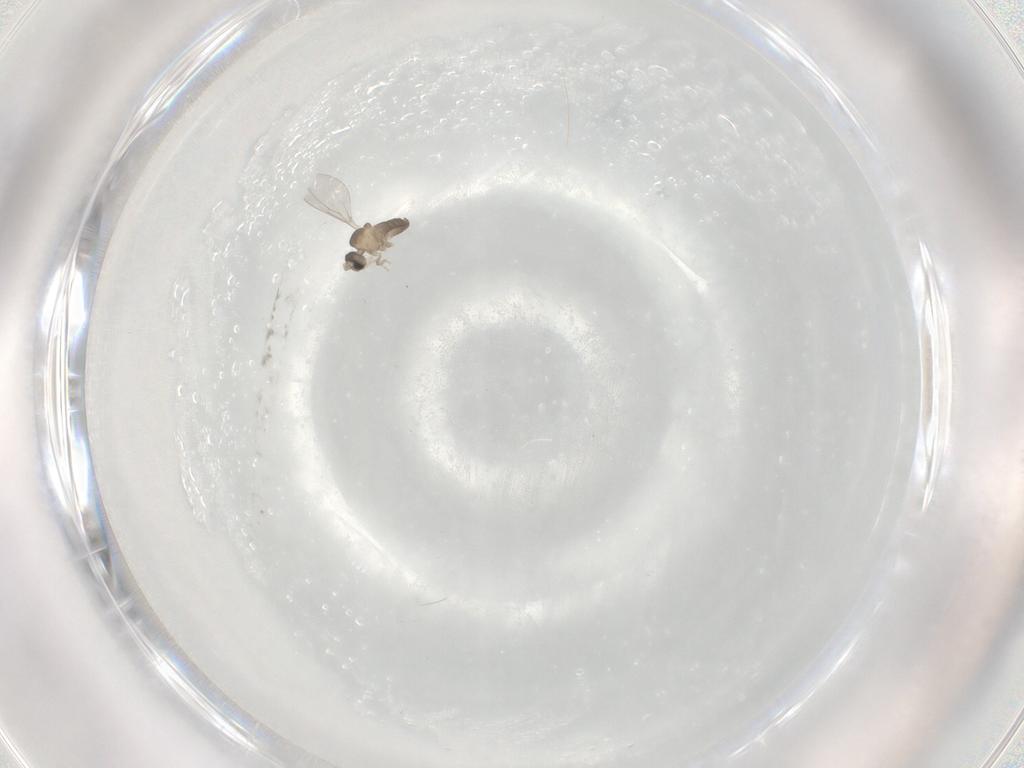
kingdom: Animalia
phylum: Arthropoda
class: Insecta
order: Diptera
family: Cecidomyiidae
